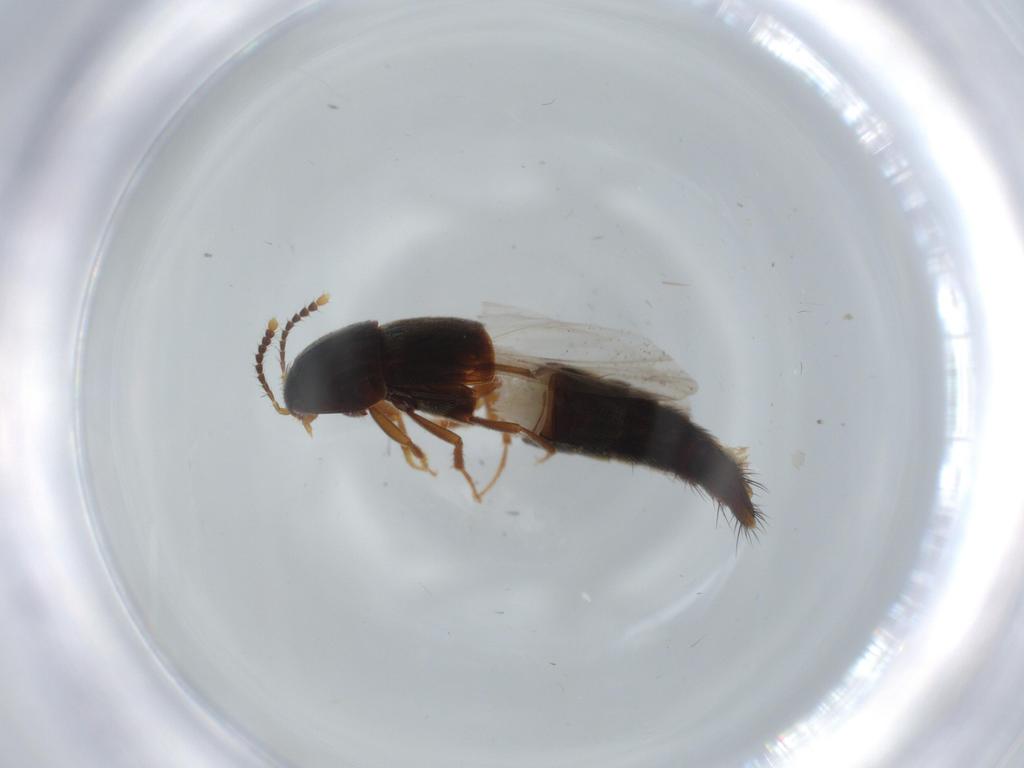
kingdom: Animalia
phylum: Arthropoda
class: Insecta
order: Coleoptera
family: Staphylinidae
